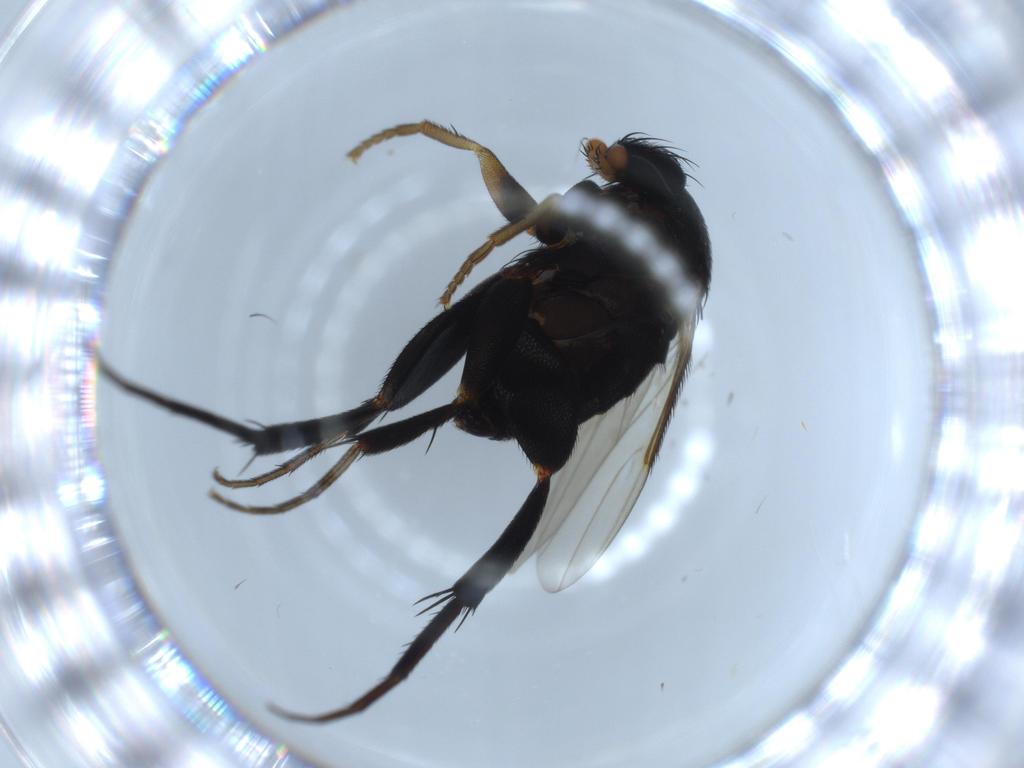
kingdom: Animalia
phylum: Arthropoda
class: Insecta
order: Diptera
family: Phoridae
